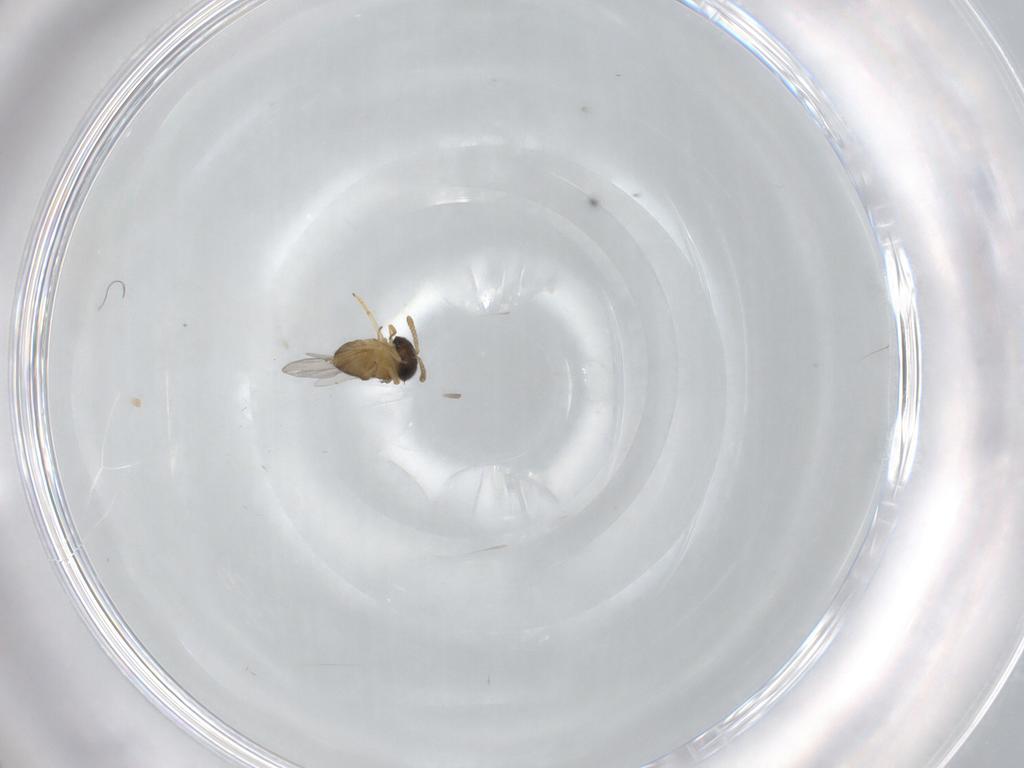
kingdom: Animalia
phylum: Arthropoda
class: Insecta
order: Hymenoptera
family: Encyrtidae
